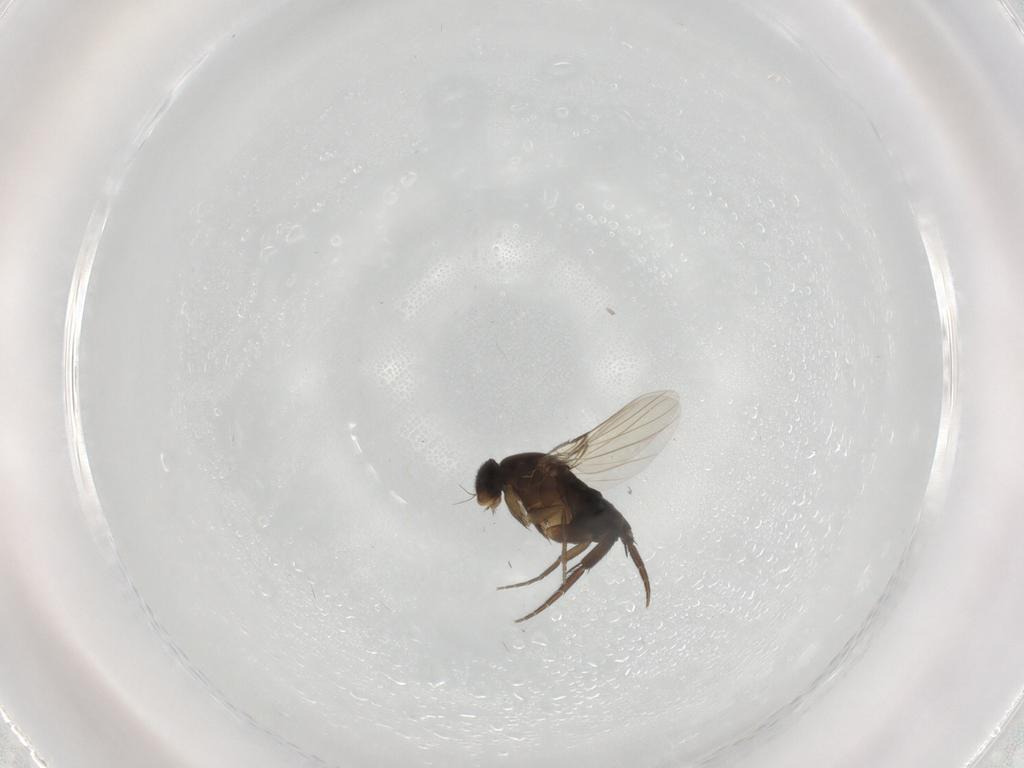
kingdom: Animalia
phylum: Arthropoda
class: Insecta
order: Diptera
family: Phoridae
